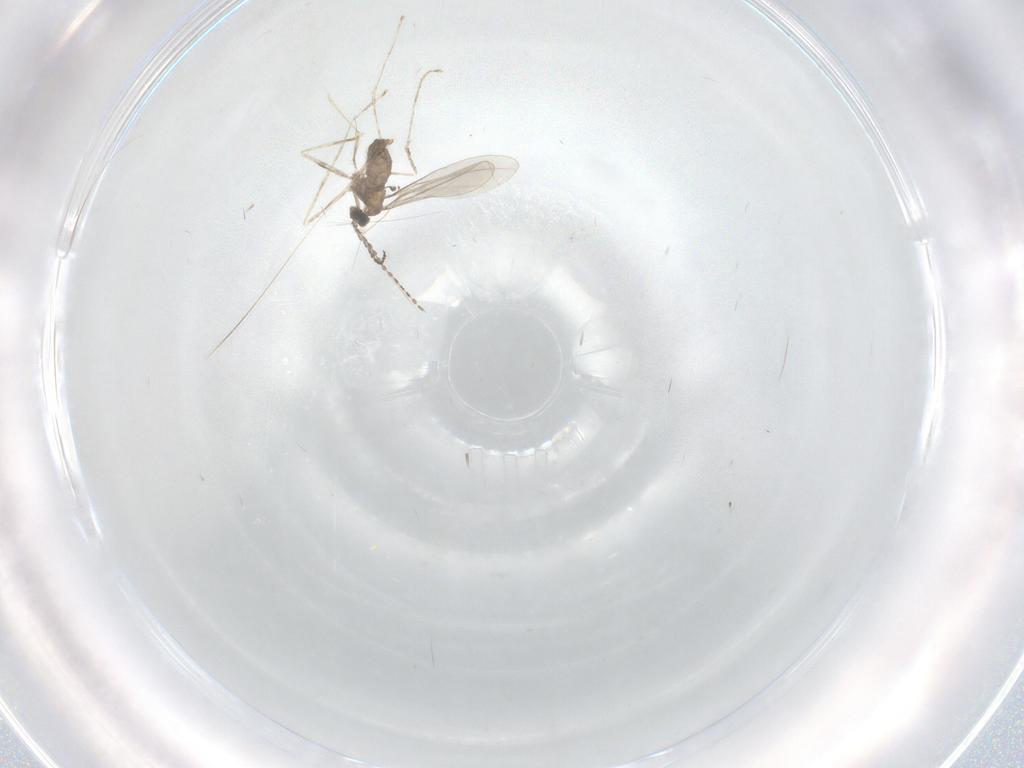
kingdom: Animalia
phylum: Arthropoda
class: Insecta
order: Diptera
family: Cecidomyiidae
